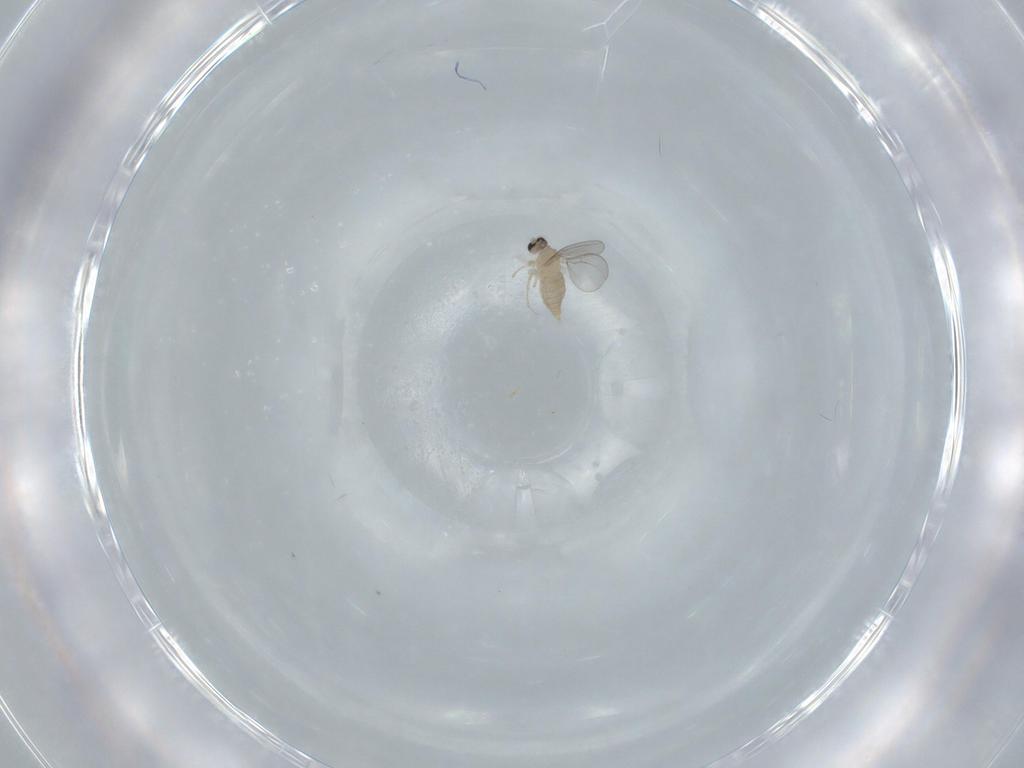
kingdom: Animalia
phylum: Arthropoda
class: Insecta
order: Diptera
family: Cecidomyiidae
